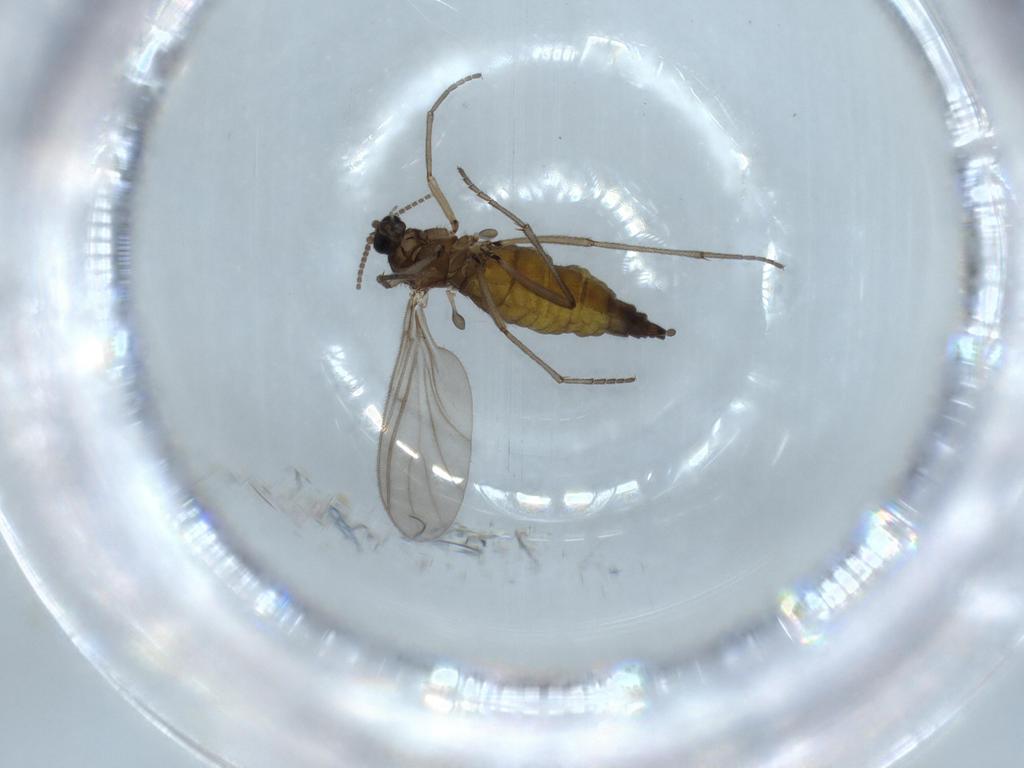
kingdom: Animalia
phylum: Arthropoda
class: Insecta
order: Diptera
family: Sciaridae
